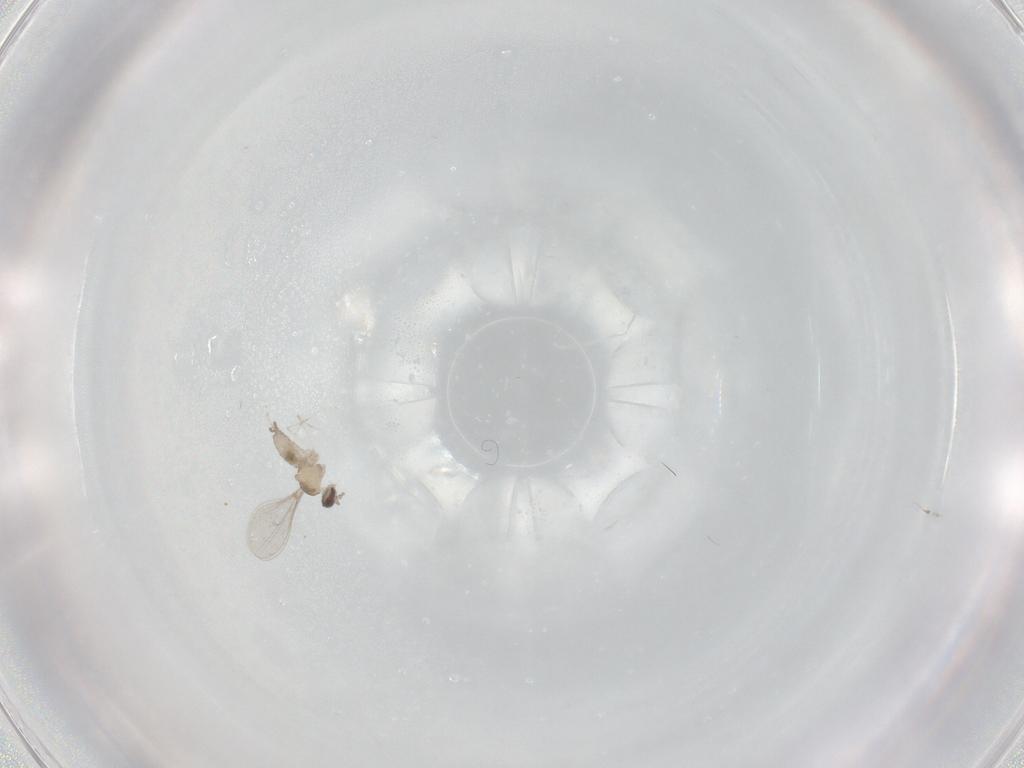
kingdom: Animalia
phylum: Arthropoda
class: Insecta
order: Diptera
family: Cecidomyiidae
